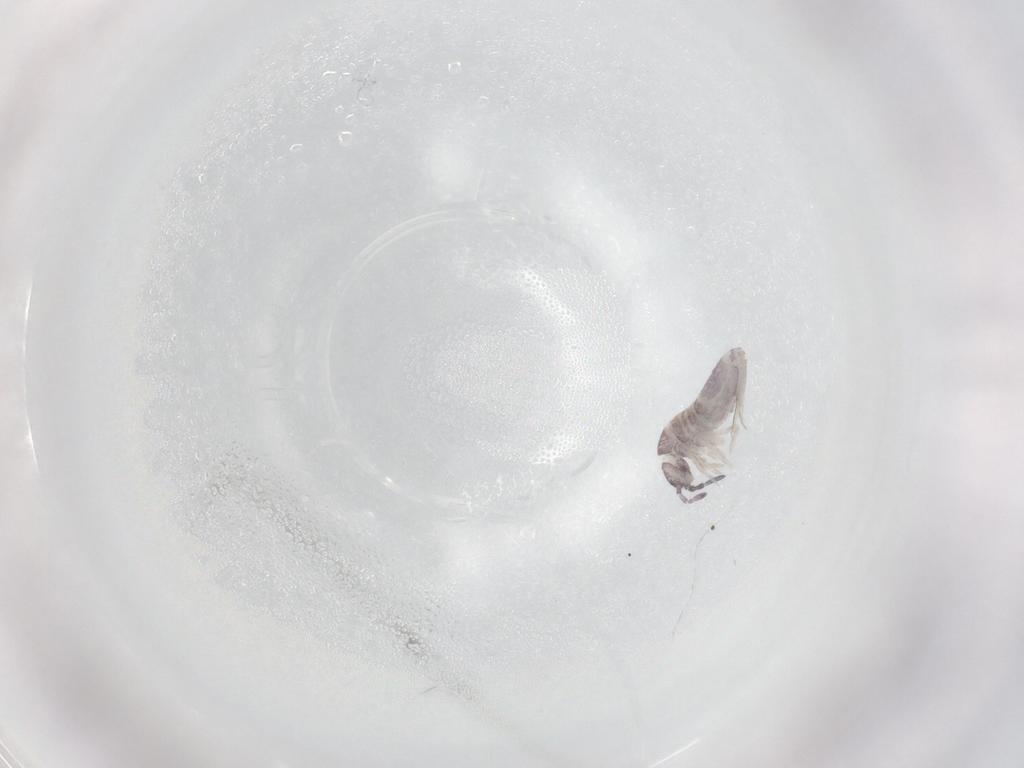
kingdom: Animalia
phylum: Arthropoda
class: Collembola
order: Entomobryomorpha
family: Entomobryidae
